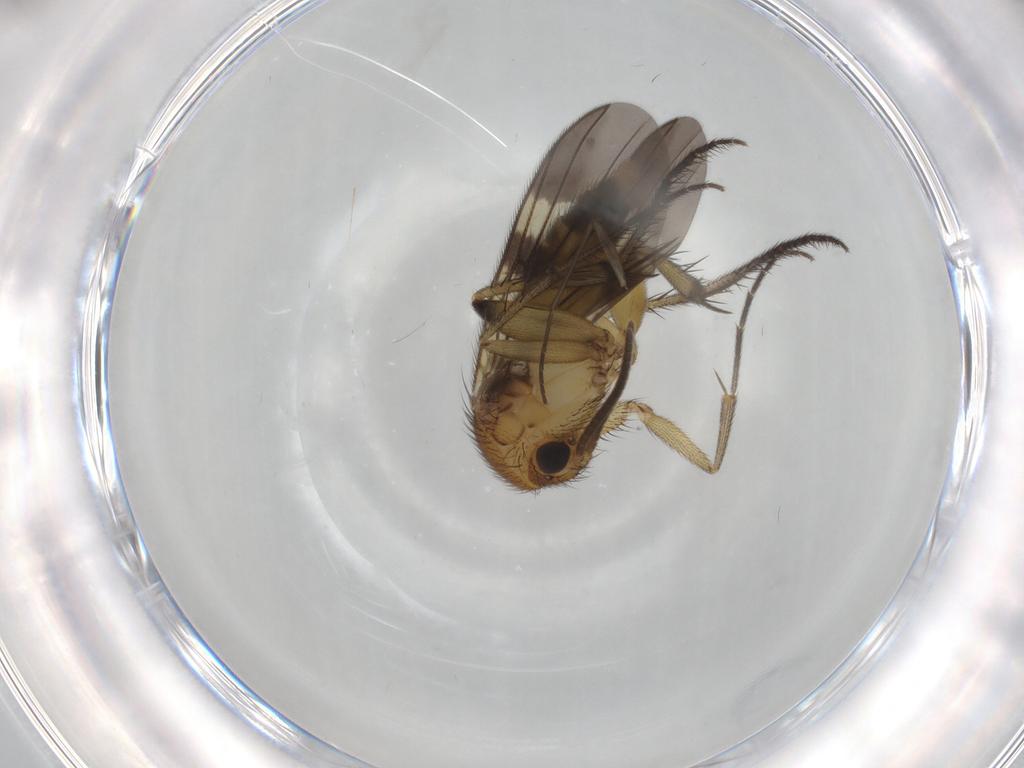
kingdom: Animalia
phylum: Arthropoda
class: Insecta
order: Diptera
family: Mycetophilidae
